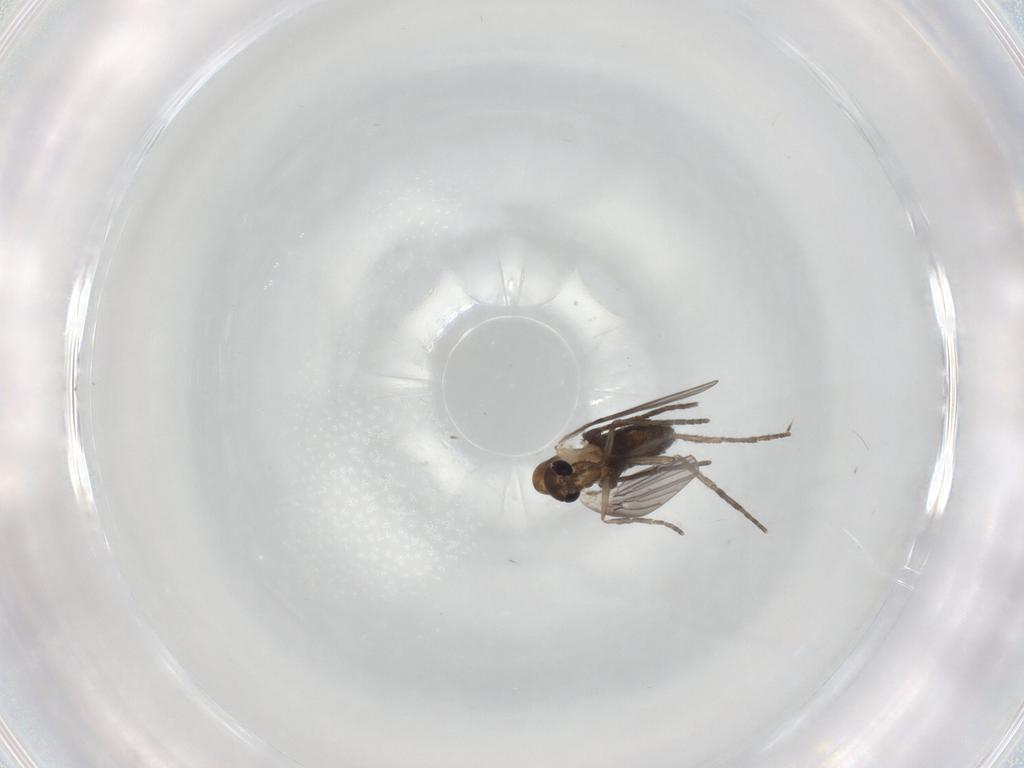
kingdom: Animalia
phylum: Arthropoda
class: Insecta
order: Diptera
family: Psychodidae
